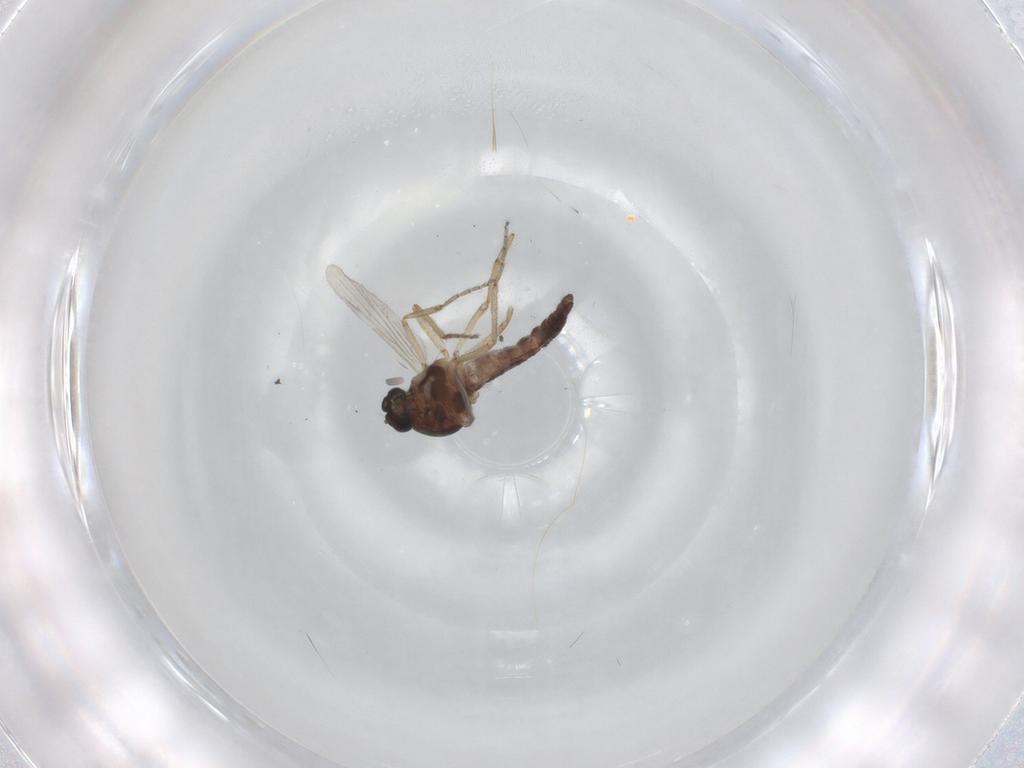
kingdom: Animalia
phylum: Arthropoda
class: Insecta
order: Diptera
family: Ceratopogonidae
